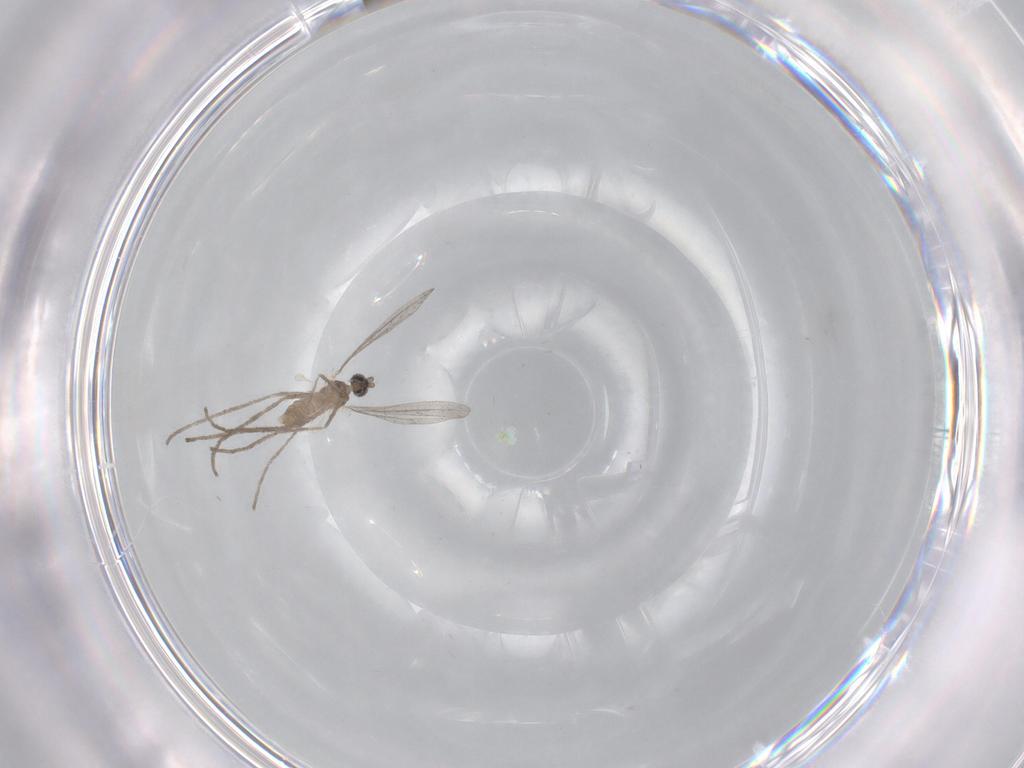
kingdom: Animalia
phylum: Arthropoda
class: Insecta
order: Diptera
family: Cecidomyiidae
